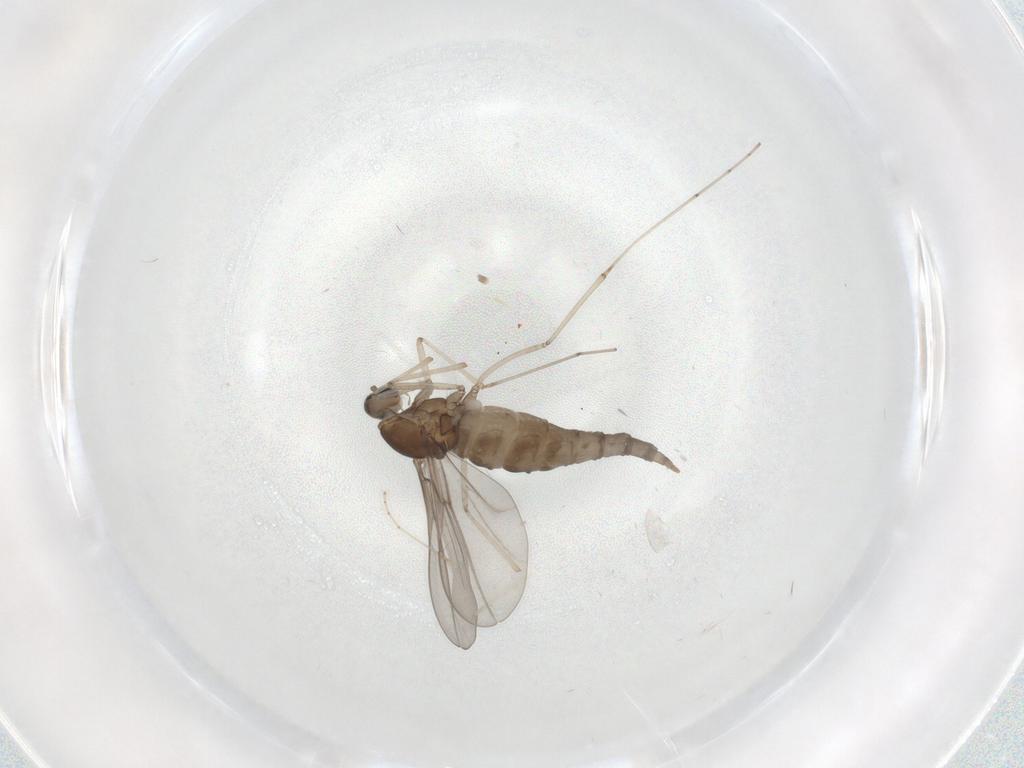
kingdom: Animalia
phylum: Arthropoda
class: Insecta
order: Diptera
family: Cecidomyiidae
